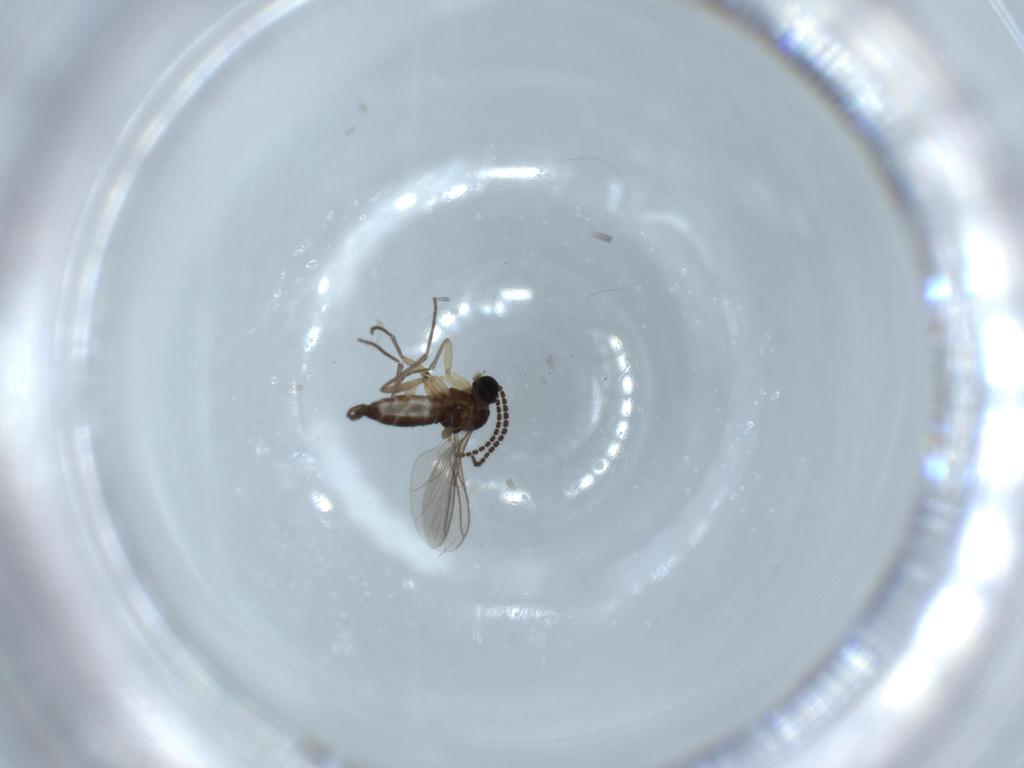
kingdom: Animalia
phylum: Arthropoda
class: Insecta
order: Diptera
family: Sciaridae
